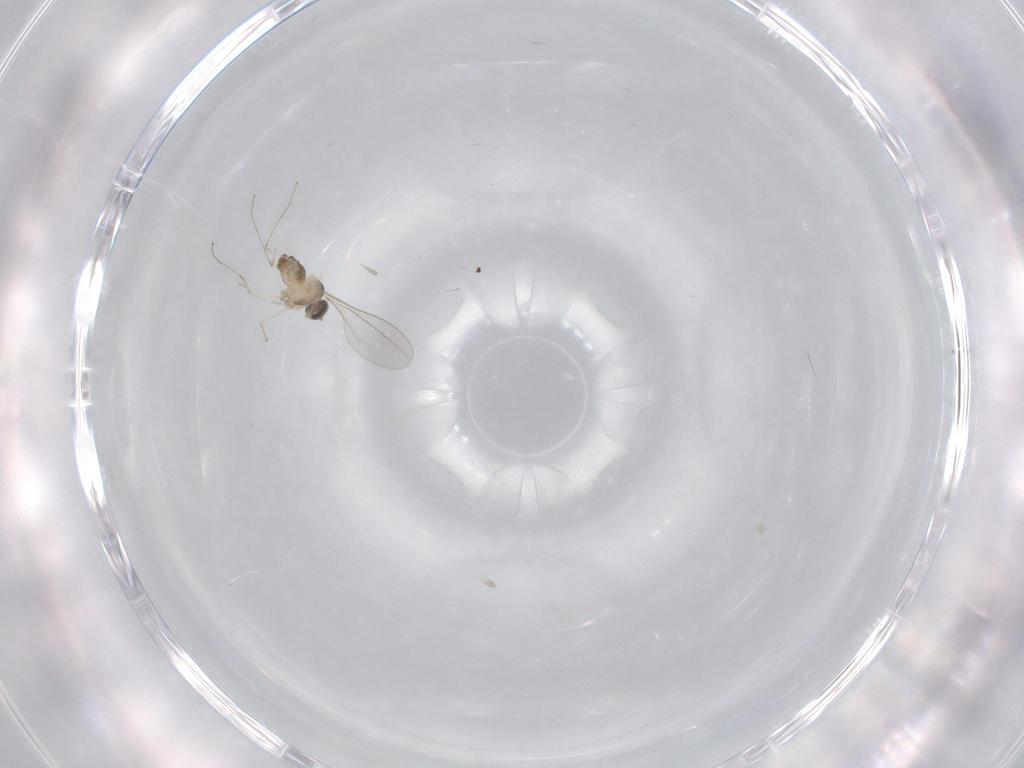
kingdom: Animalia
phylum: Arthropoda
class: Insecta
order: Diptera
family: Cecidomyiidae
